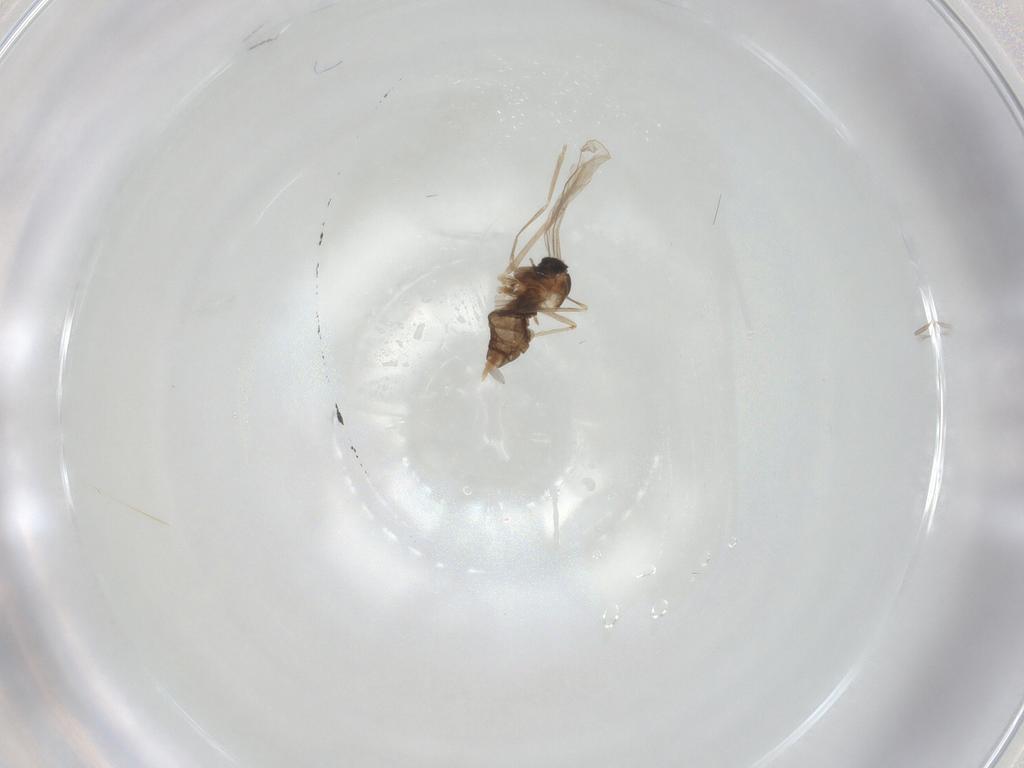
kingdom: Animalia
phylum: Arthropoda
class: Insecta
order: Diptera
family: Cecidomyiidae
